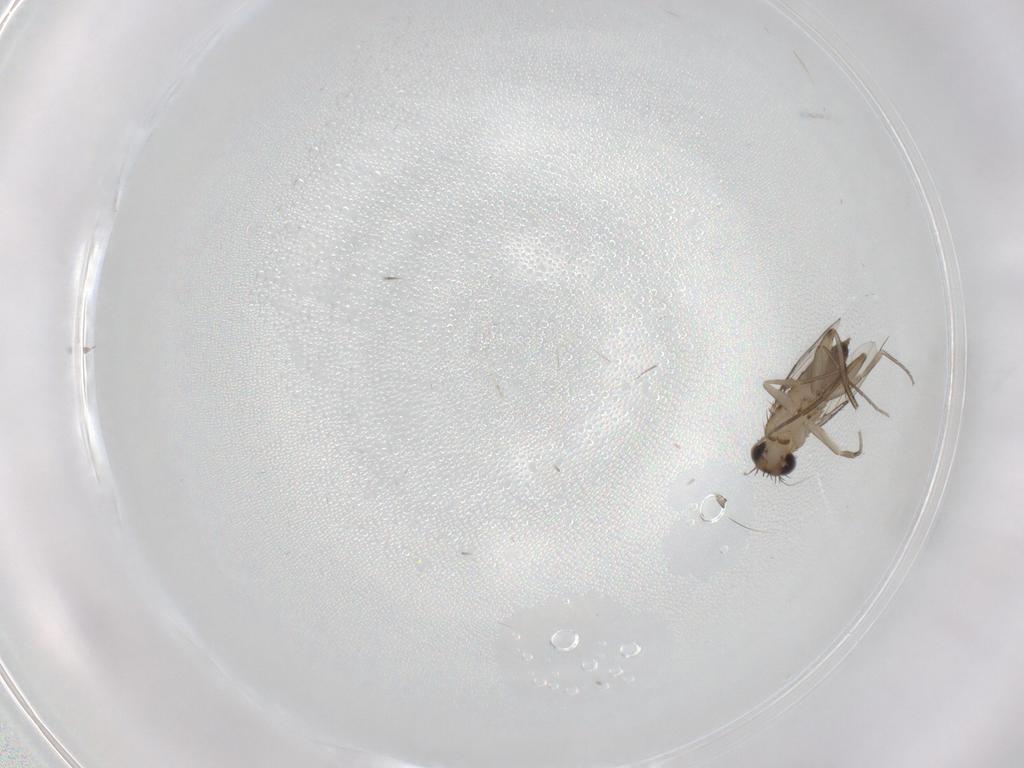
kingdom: Animalia
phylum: Arthropoda
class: Insecta
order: Diptera
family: Phoridae
